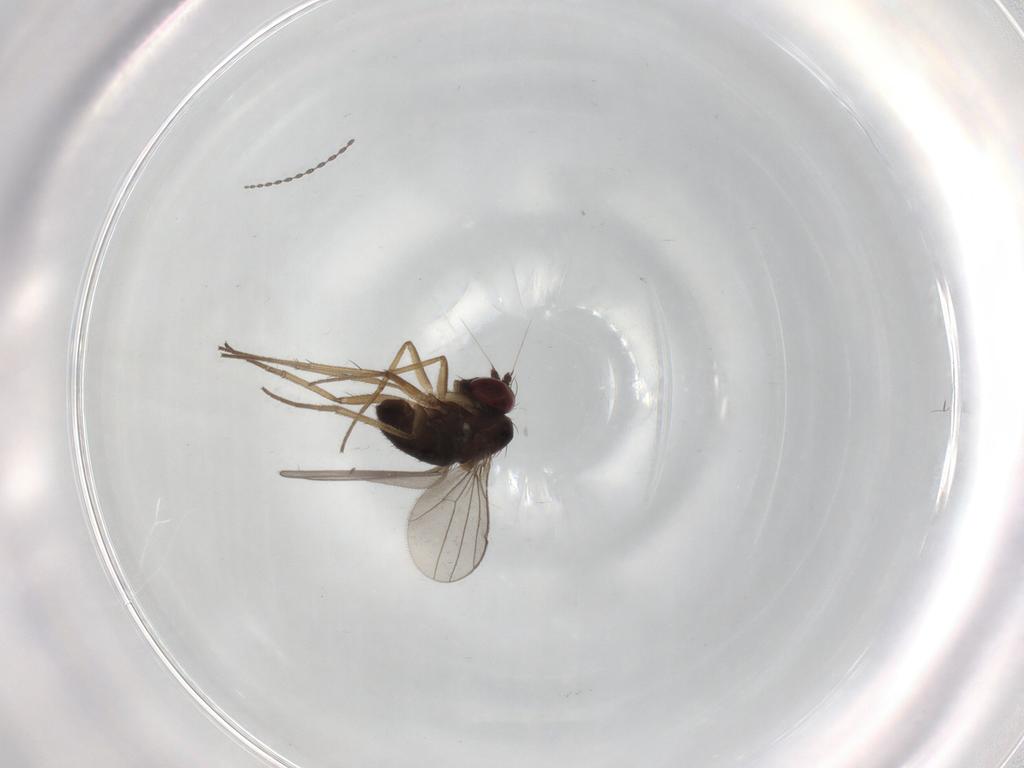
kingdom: Animalia
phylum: Arthropoda
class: Insecta
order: Diptera
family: Dolichopodidae
